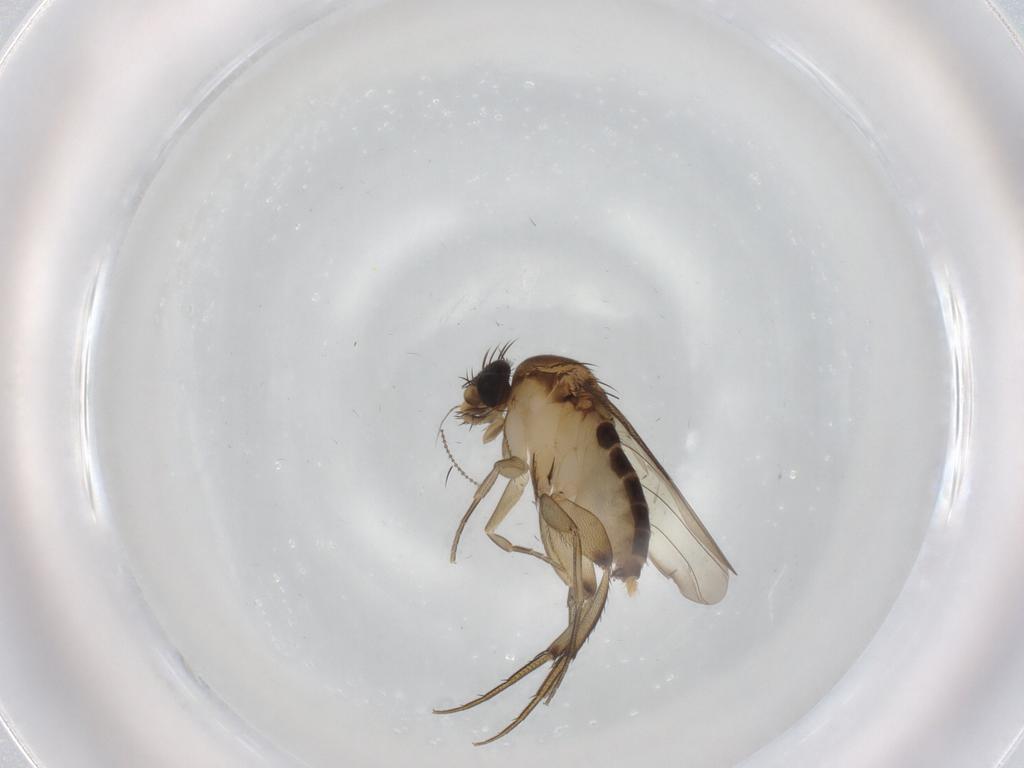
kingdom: Animalia
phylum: Arthropoda
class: Insecta
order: Diptera
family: Phoridae
